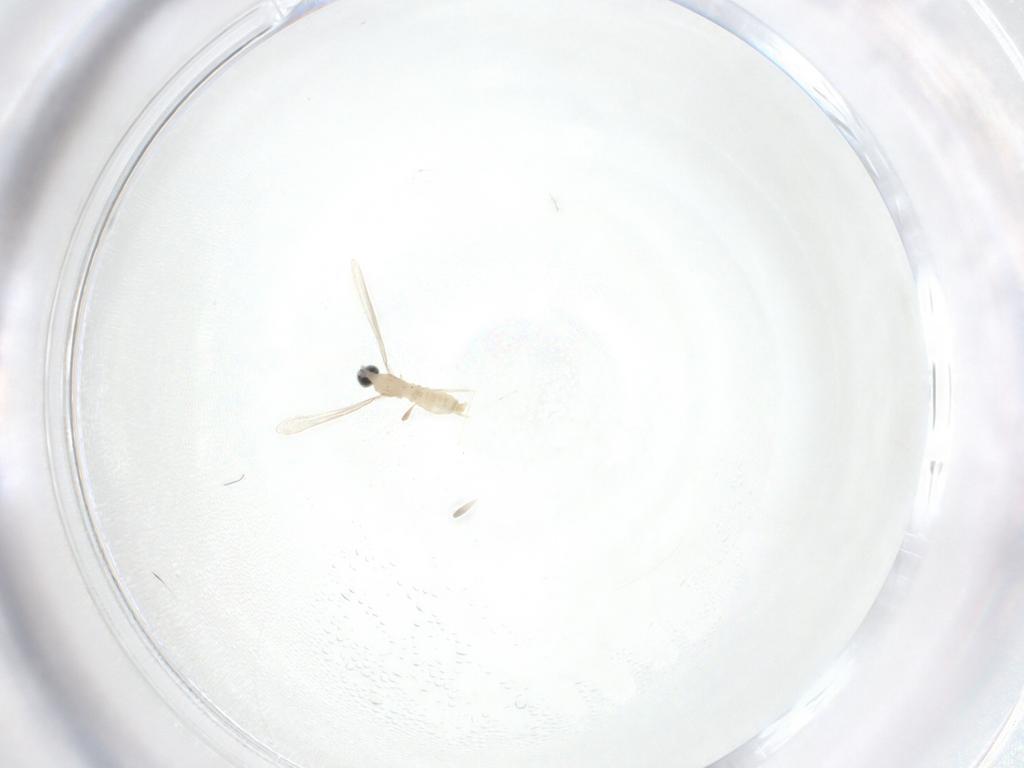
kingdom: Animalia
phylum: Arthropoda
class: Insecta
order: Diptera
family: Cecidomyiidae
